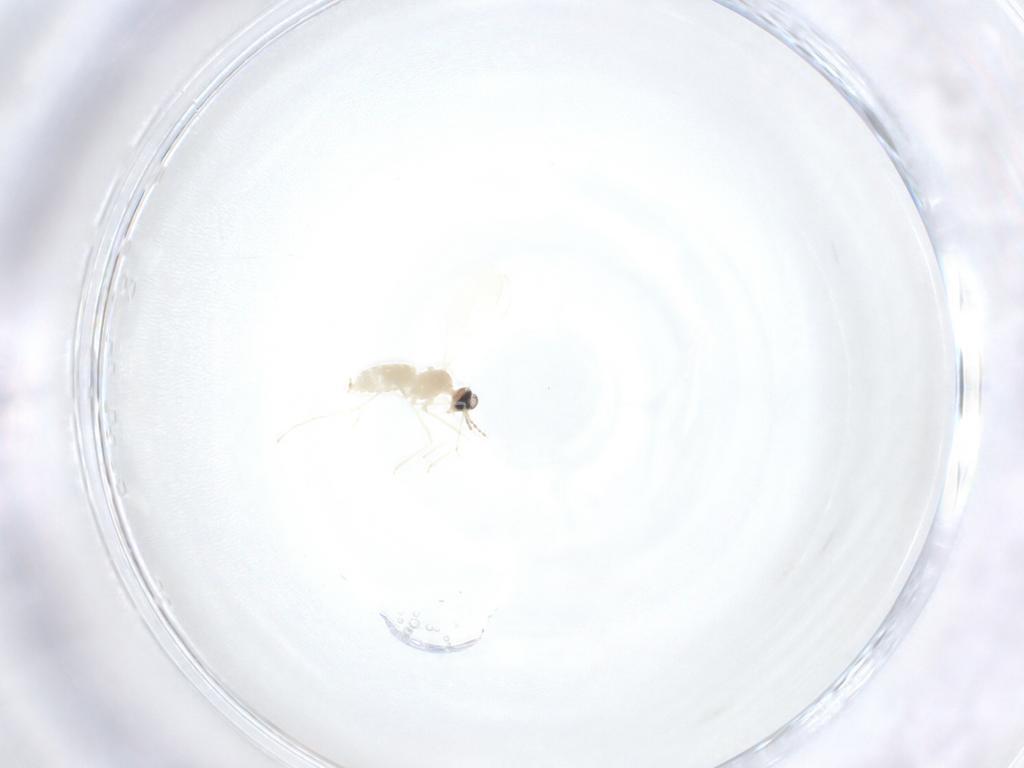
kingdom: Animalia
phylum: Arthropoda
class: Insecta
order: Diptera
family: Cecidomyiidae
